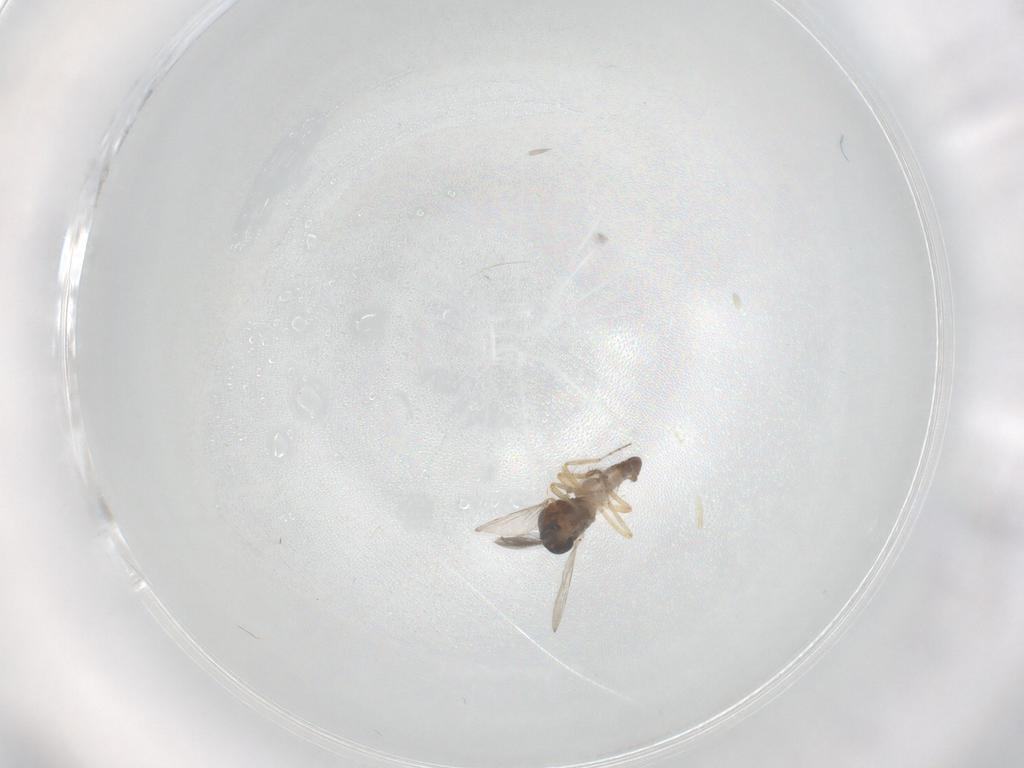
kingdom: Animalia
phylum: Arthropoda
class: Insecta
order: Diptera
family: Ceratopogonidae
